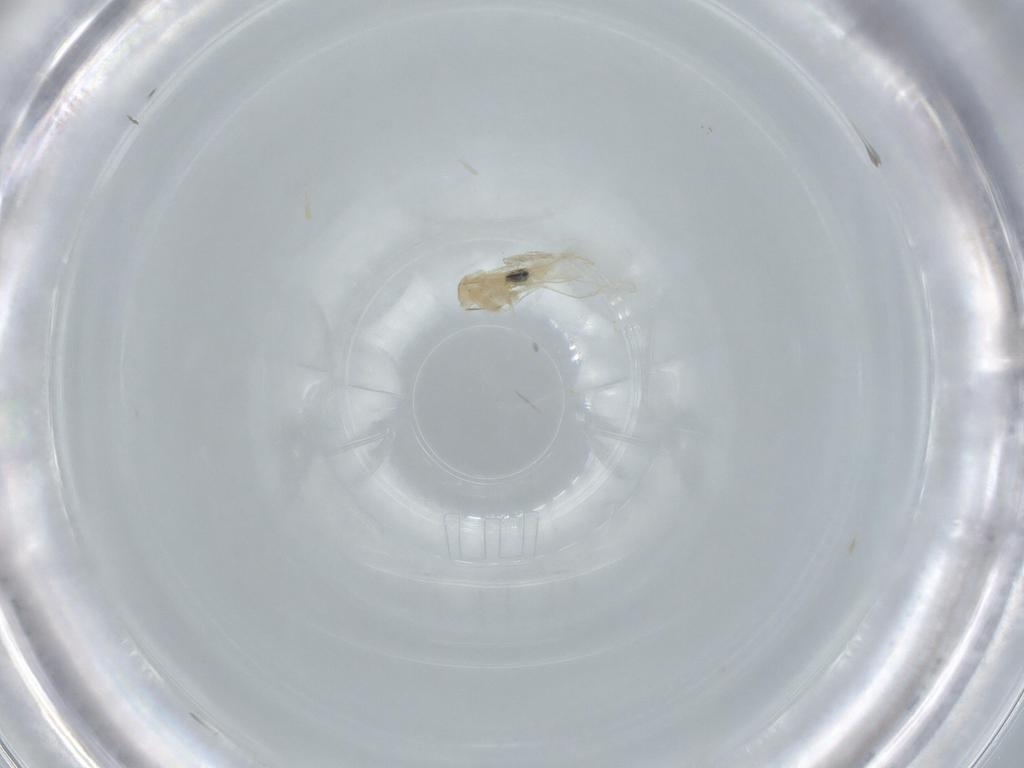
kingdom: Animalia
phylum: Arthropoda
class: Insecta
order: Diptera
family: Cecidomyiidae
